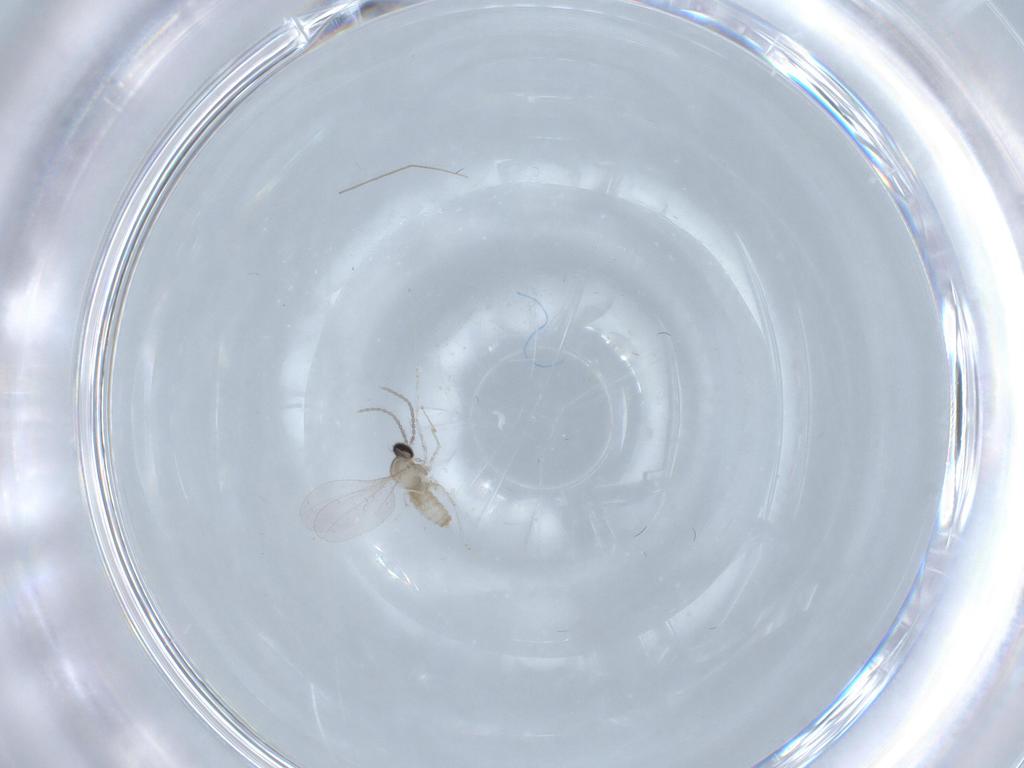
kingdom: Animalia
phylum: Arthropoda
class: Insecta
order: Diptera
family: Cecidomyiidae
